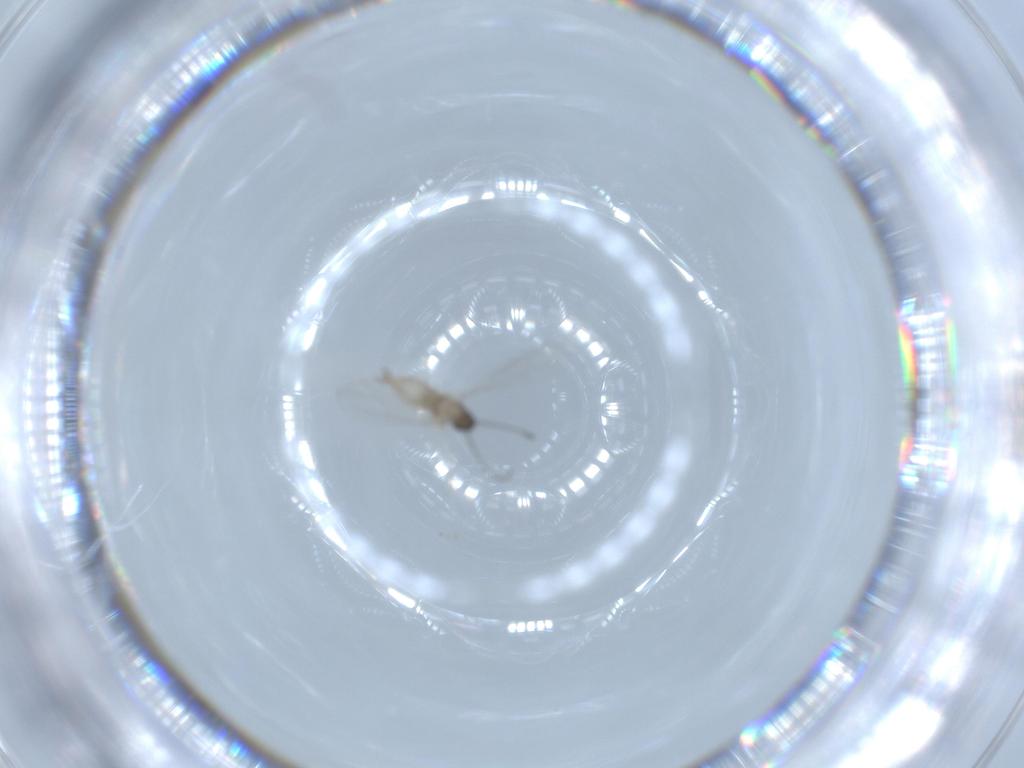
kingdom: Animalia
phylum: Arthropoda
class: Insecta
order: Diptera
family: Cecidomyiidae
